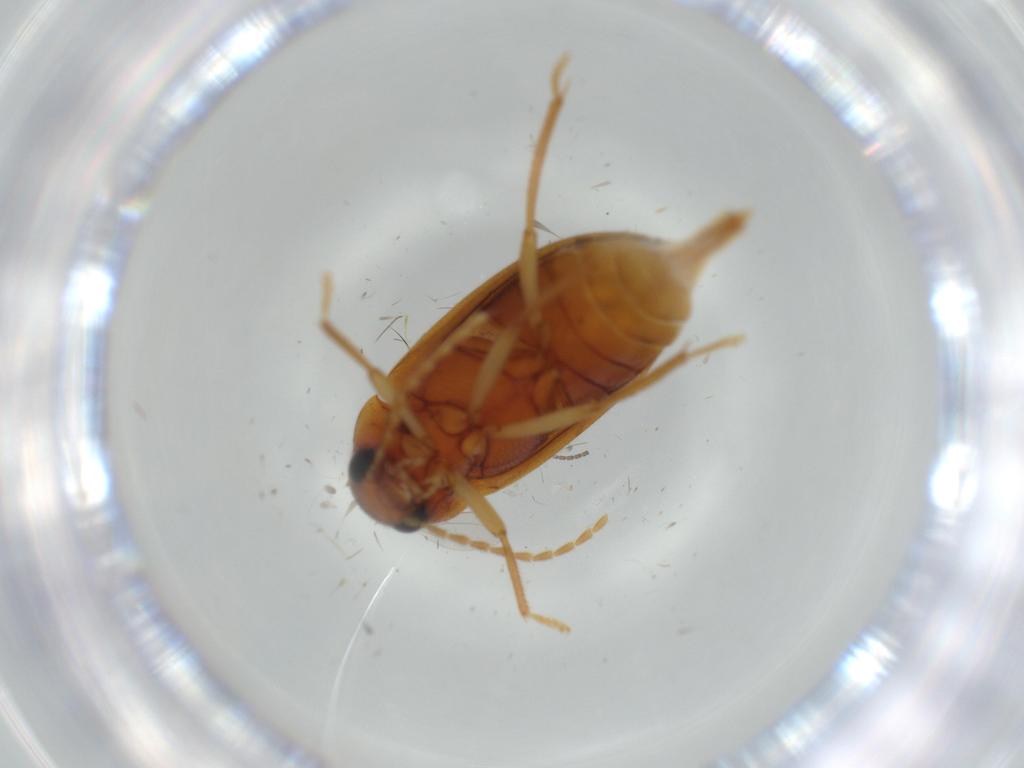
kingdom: Animalia
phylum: Arthropoda
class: Insecta
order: Coleoptera
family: Ptilodactylidae
